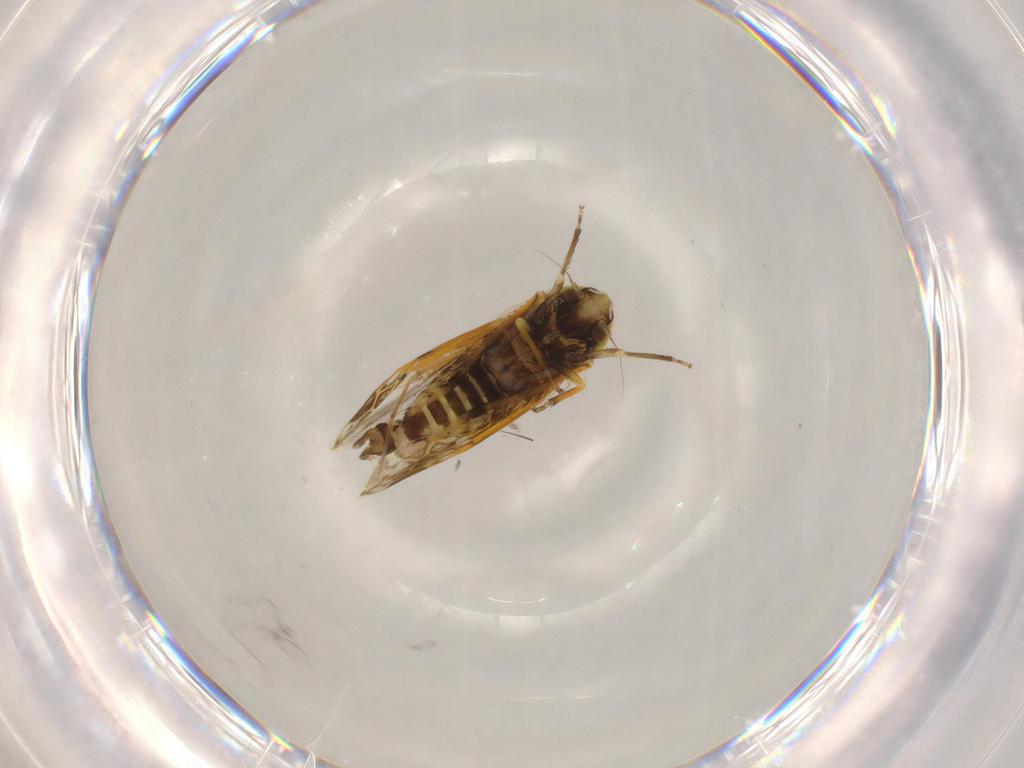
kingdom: Animalia
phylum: Arthropoda
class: Insecta
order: Hemiptera
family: Cicadellidae
